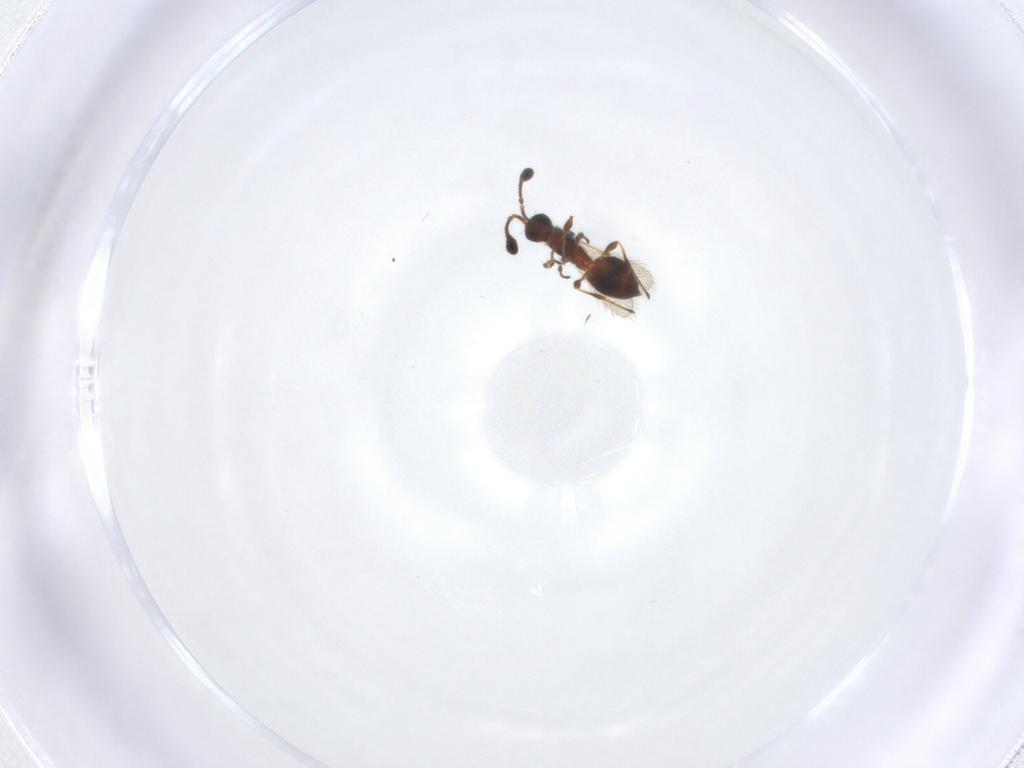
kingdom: Animalia
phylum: Arthropoda
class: Insecta
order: Hymenoptera
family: Diapriidae
